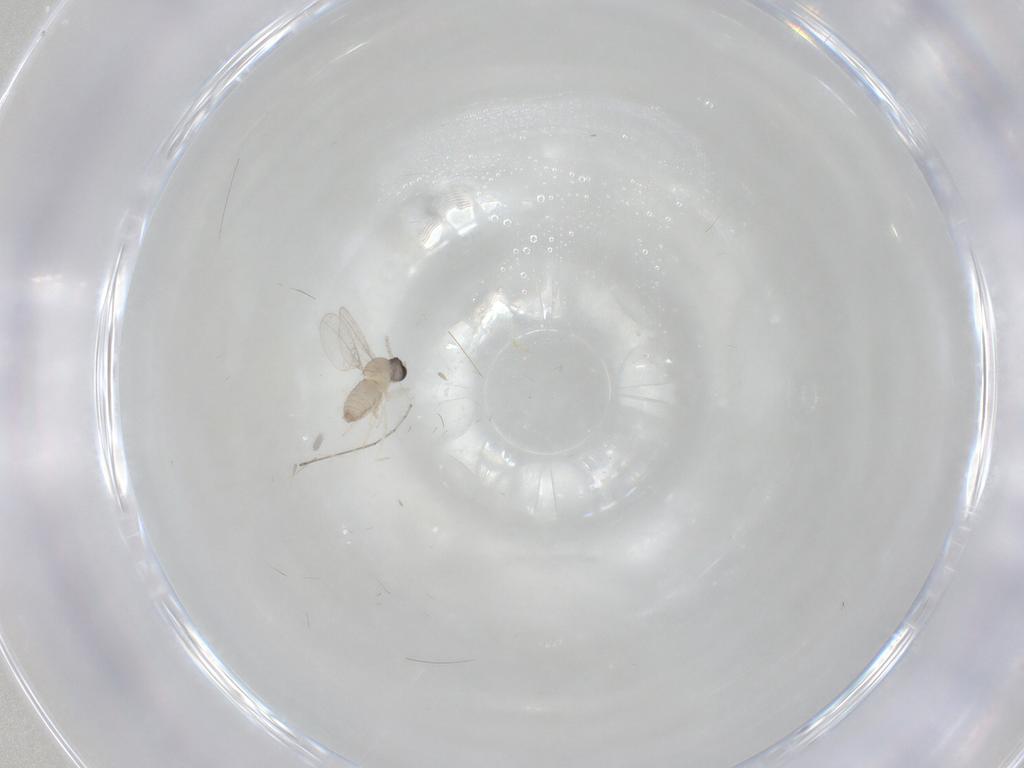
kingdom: Animalia
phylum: Arthropoda
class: Insecta
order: Diptera
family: Cecidomyiidae
